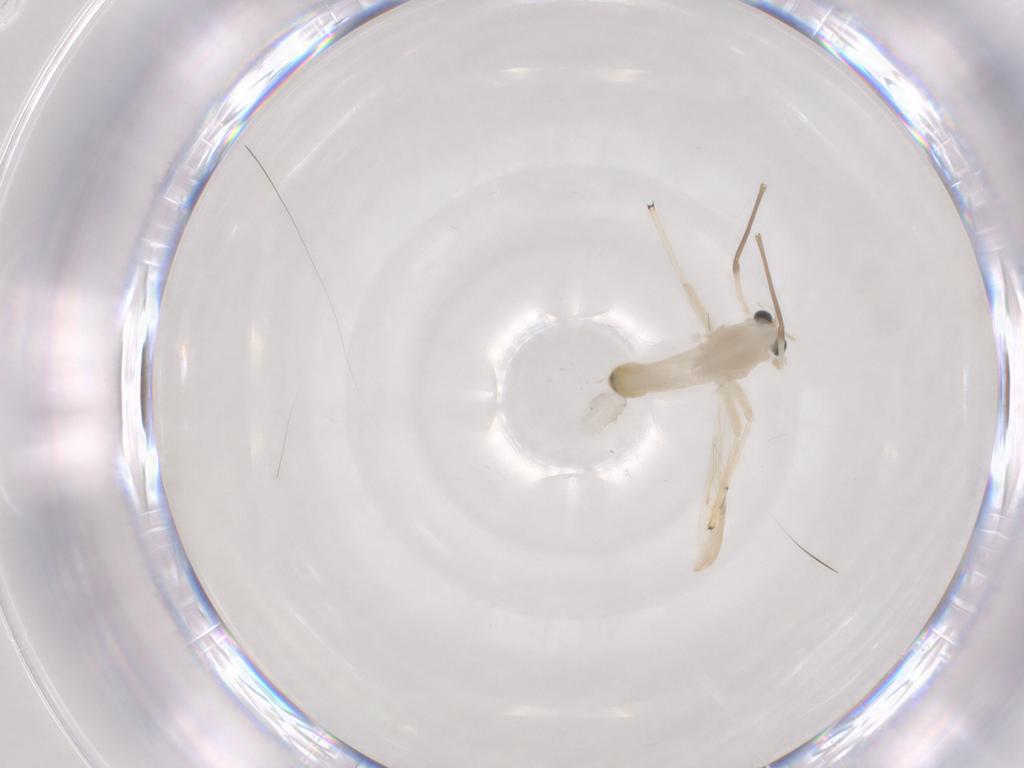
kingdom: Animalia
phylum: Arthropoda
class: Insecta
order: Diptera
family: Chironomidae
